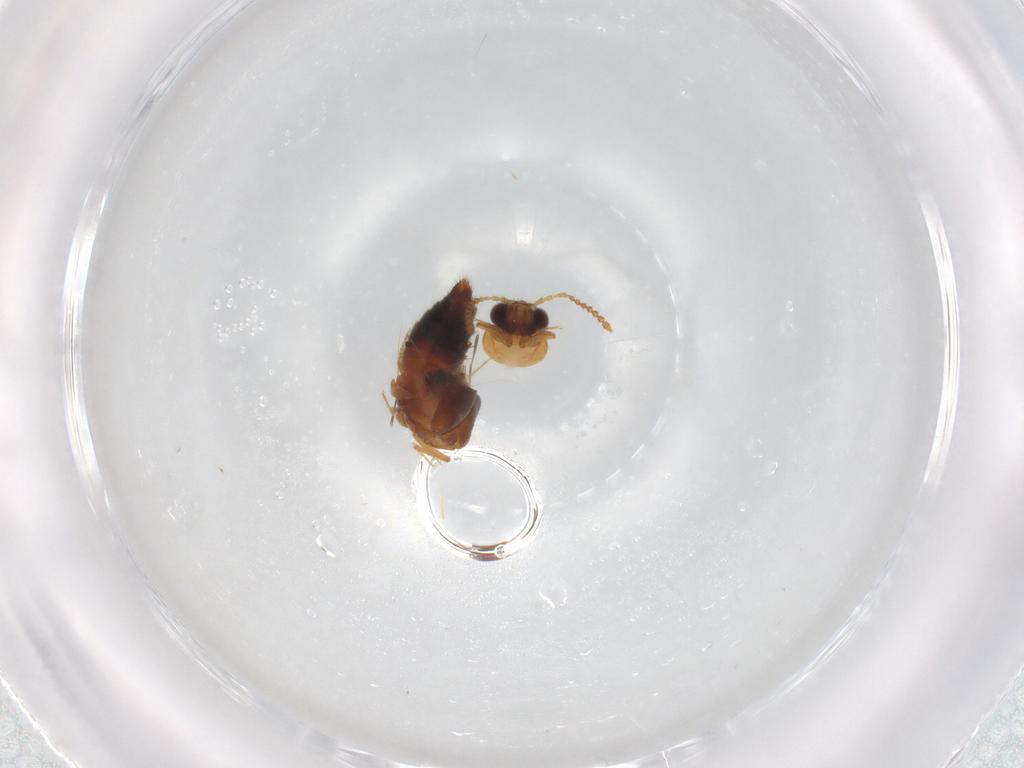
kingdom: Animalia
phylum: Arthropoda
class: Insecta
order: Coleoptera
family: Staphylinidae
